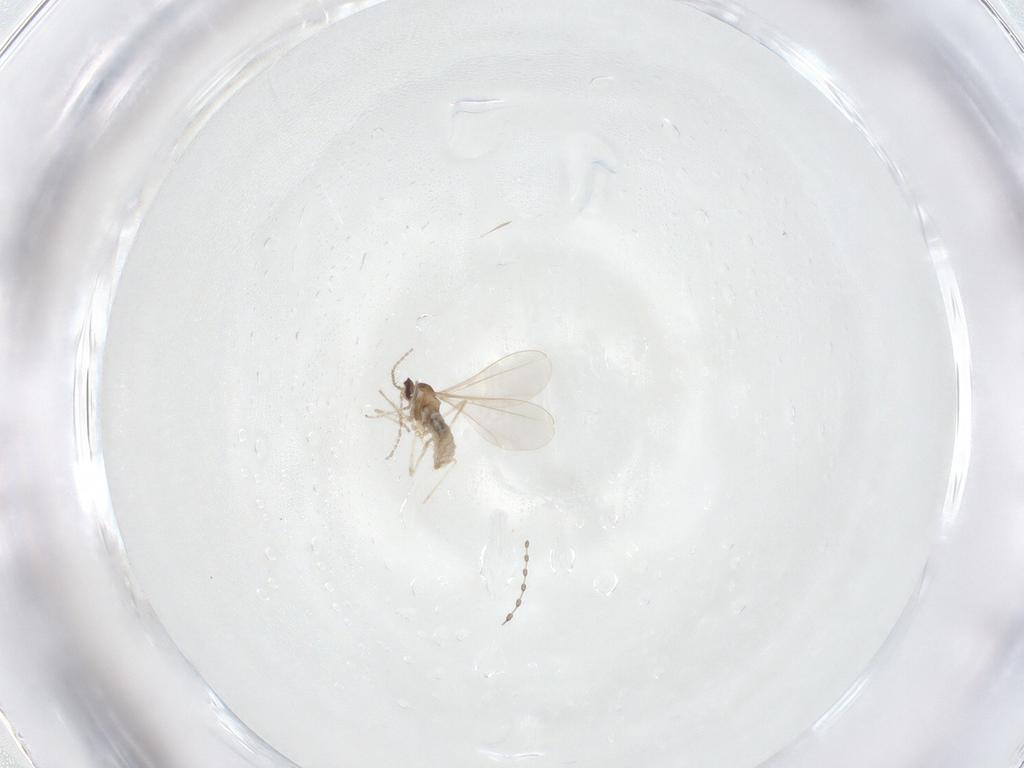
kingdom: Animalia
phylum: Arthropoda
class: Insecta
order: Diptera
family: Cecidomyiidae
